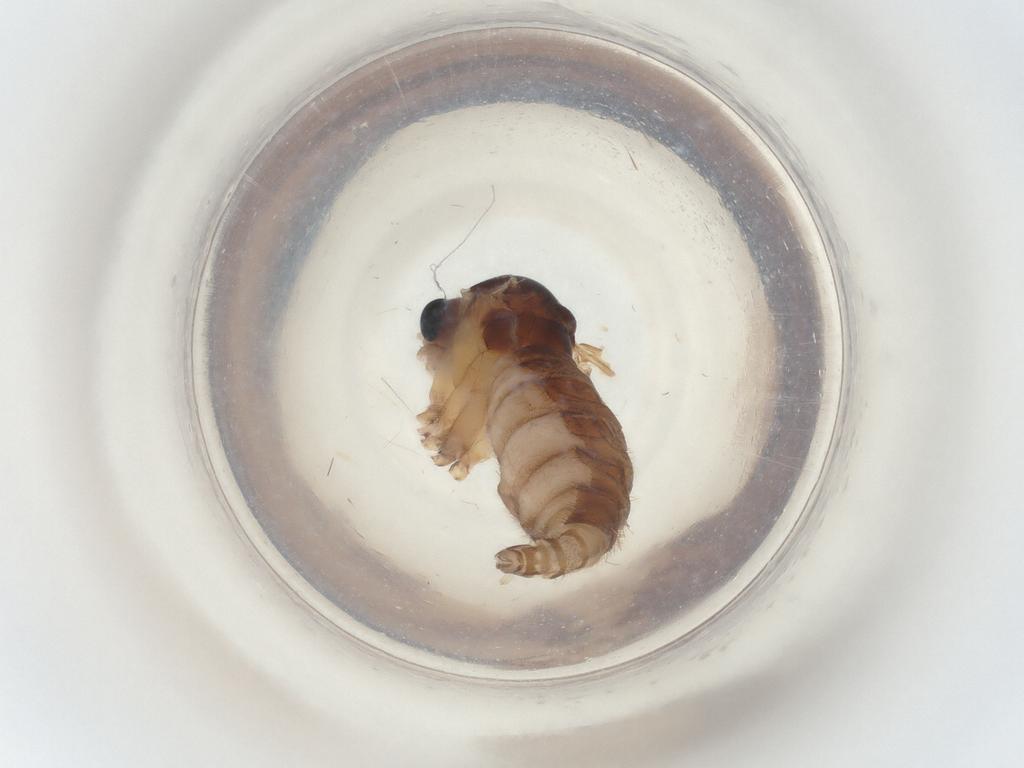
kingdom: Animalia
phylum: Arthropoda
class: Insecta
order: Diptera
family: Sciaridae
